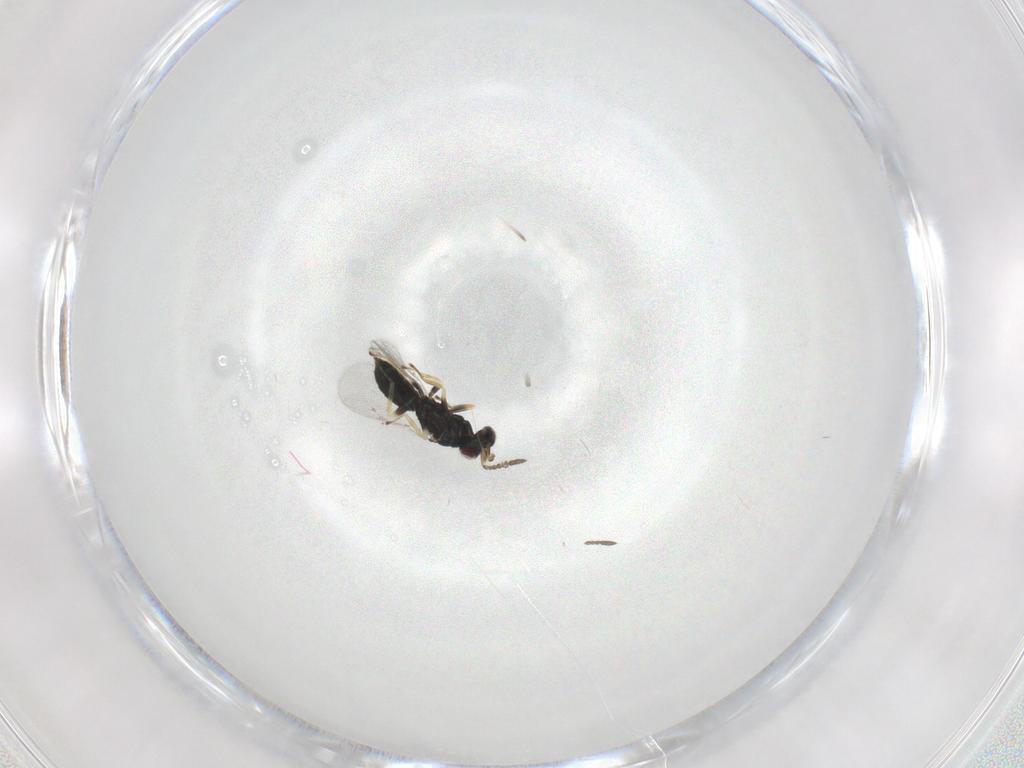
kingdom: Animalia
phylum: Arthropoda
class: Insecta
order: Hymenoptera
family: Eulophidae
